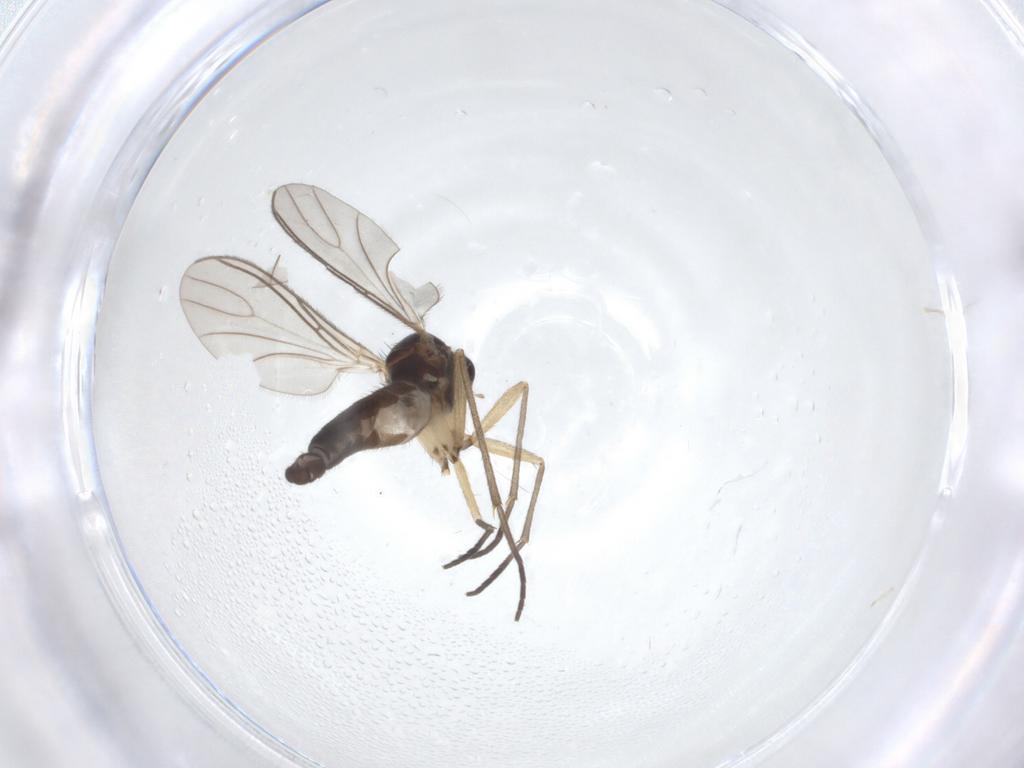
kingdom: Animalia
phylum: Arthropoda
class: Insecta
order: Diptera
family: Sciaridae
